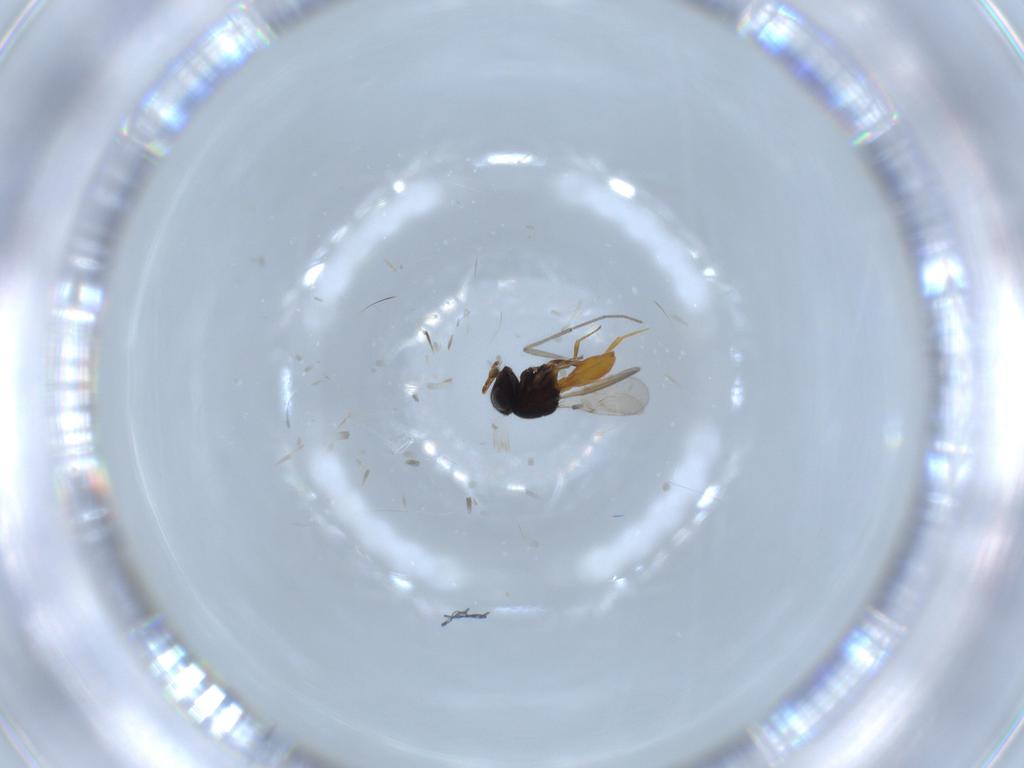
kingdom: Animalia
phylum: Arthropoda
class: Insecta
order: Hymenoptera
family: Scelionidae
